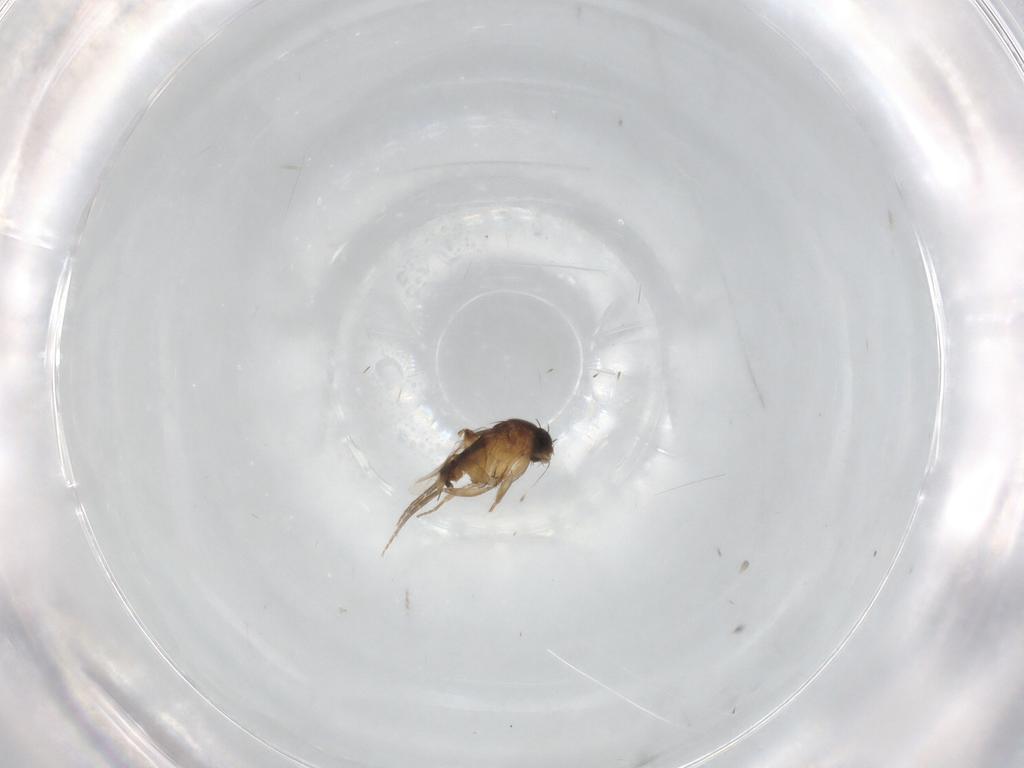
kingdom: Animalia
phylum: Arthropoda
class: Insecta
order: Diptera
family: Phoridae
